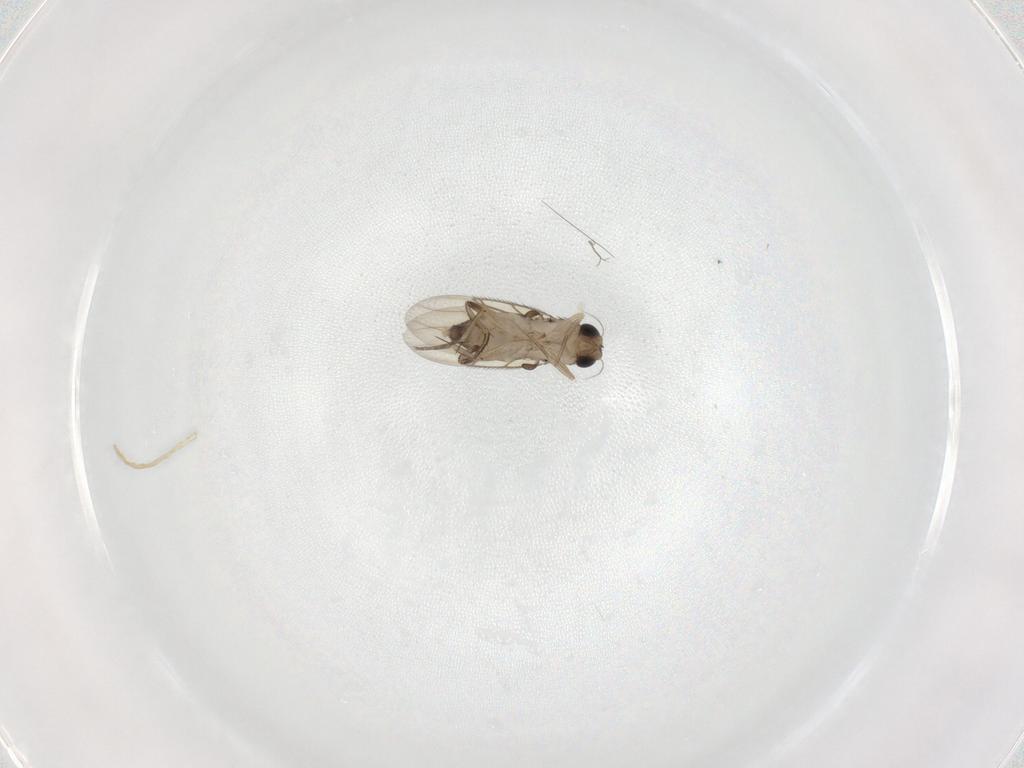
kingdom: Animalia
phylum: Arthropoda
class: Insecta
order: Diptera
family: Phoridae
